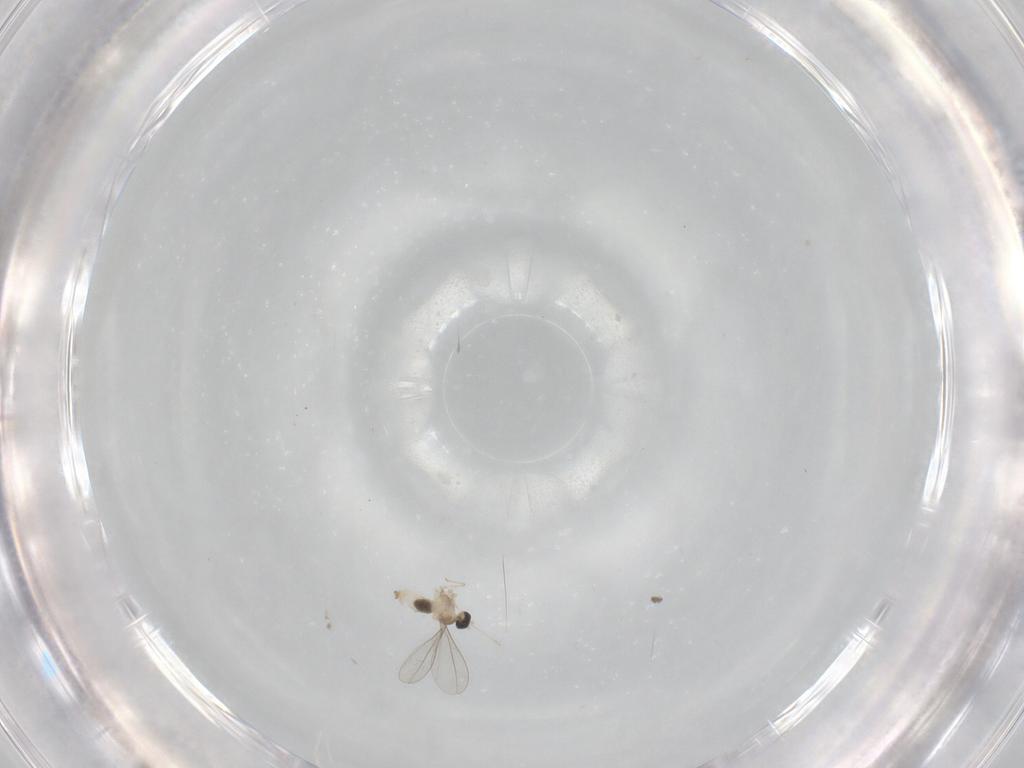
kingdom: Animalia
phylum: Arthropoda
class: Insecta
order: Diptera
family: Cecidomyiidae
